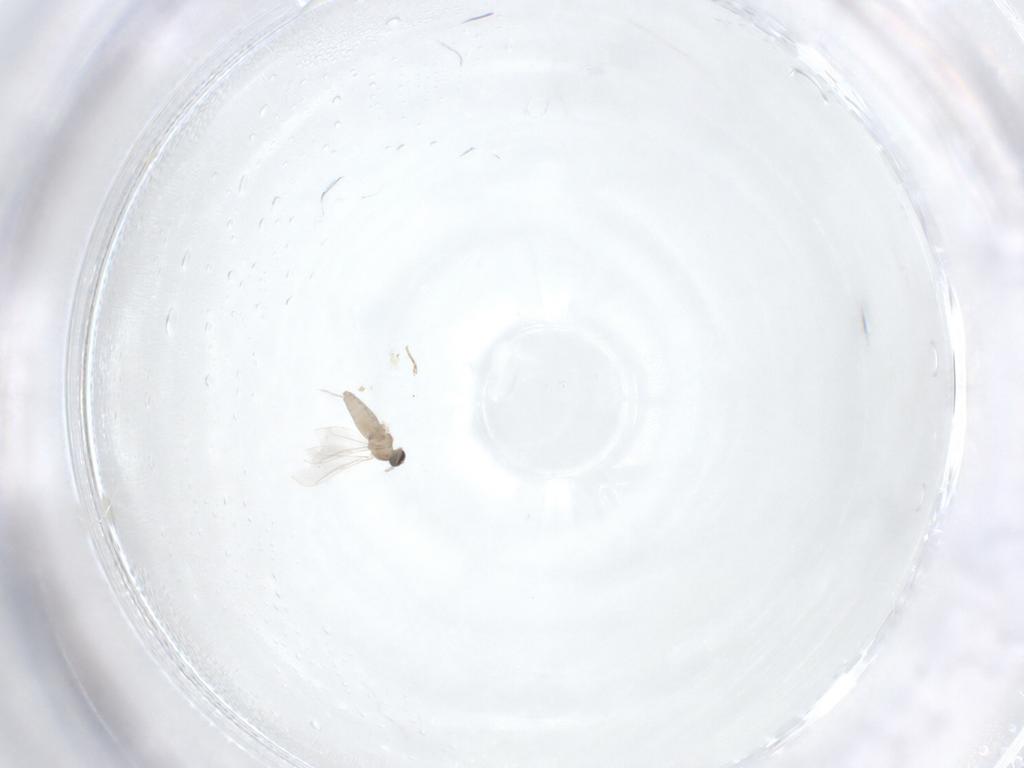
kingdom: Animalia
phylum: Arthropoda
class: Insecta
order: Diptera
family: Cecidomyiidae
